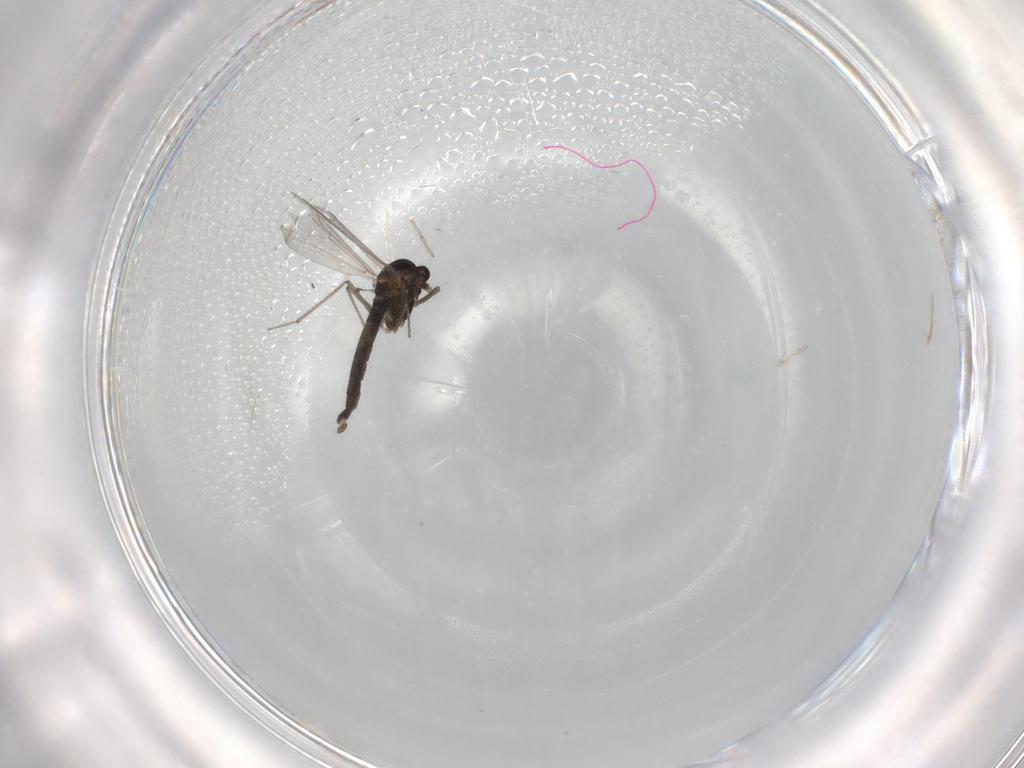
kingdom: Animalia
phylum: Arthropoda
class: Insecta
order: Diptera
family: Chironomidae
